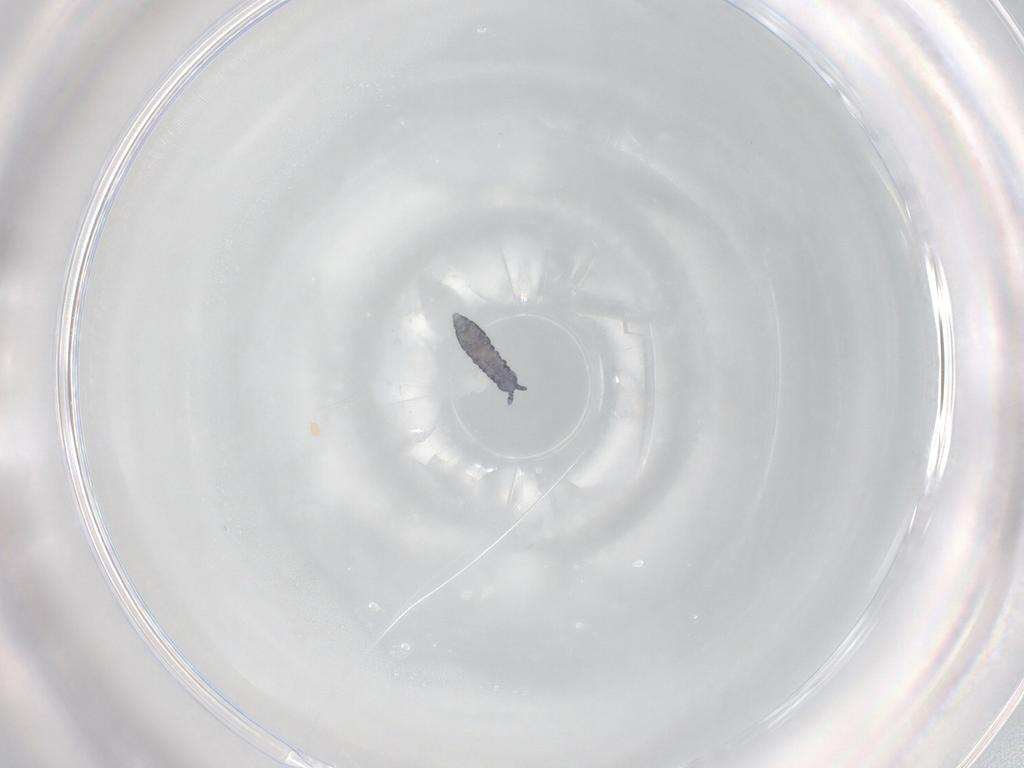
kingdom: Animalia
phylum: Arthropoda
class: Collembola
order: Poduromorpha
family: Hypogastruridae
